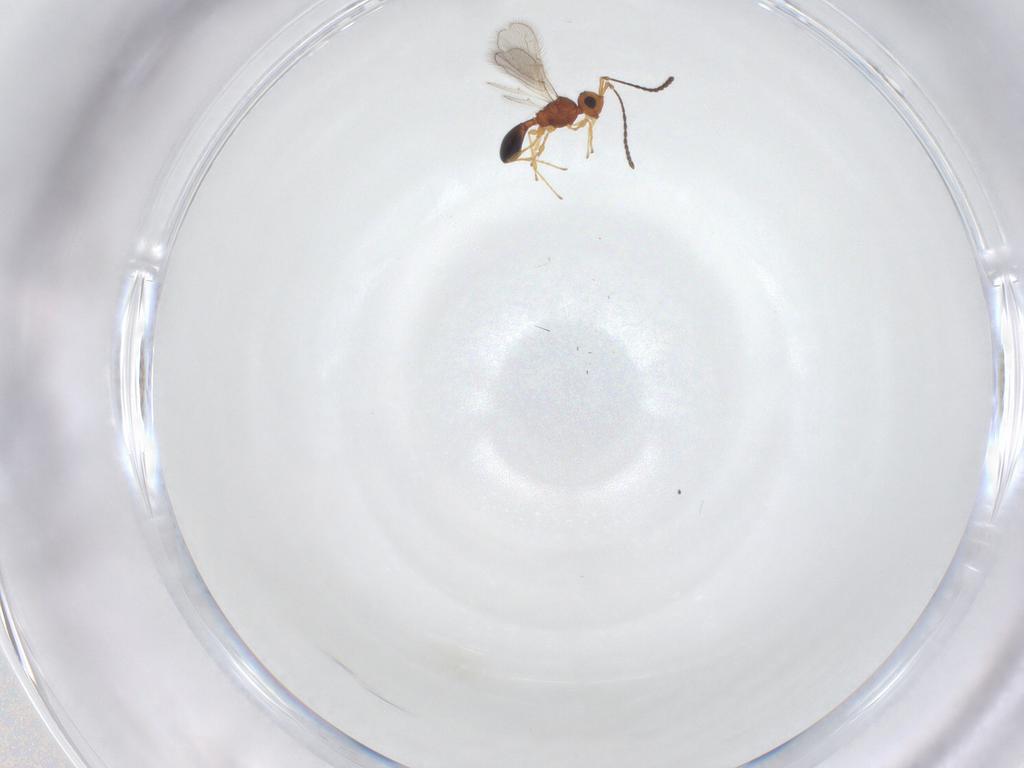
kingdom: Animalia
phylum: Arthropoda
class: Insecta
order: Hymenoptera
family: Diapriidae
